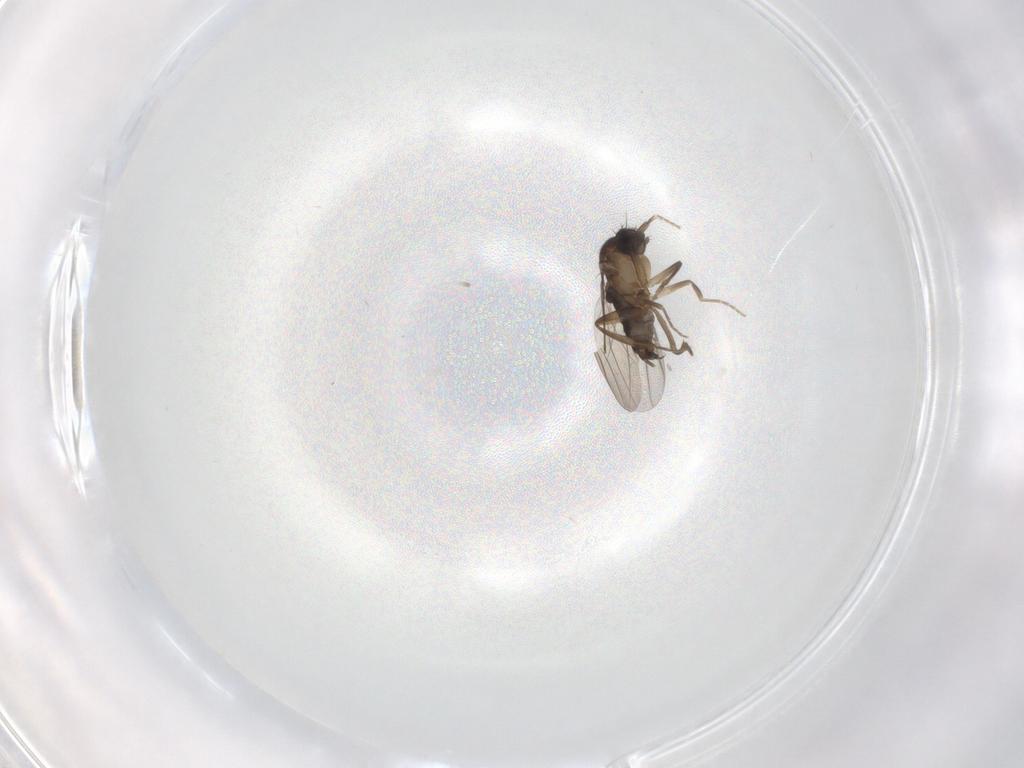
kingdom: Animalia
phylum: Arthropoda
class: Insecta
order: Diptera
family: Phoridae
